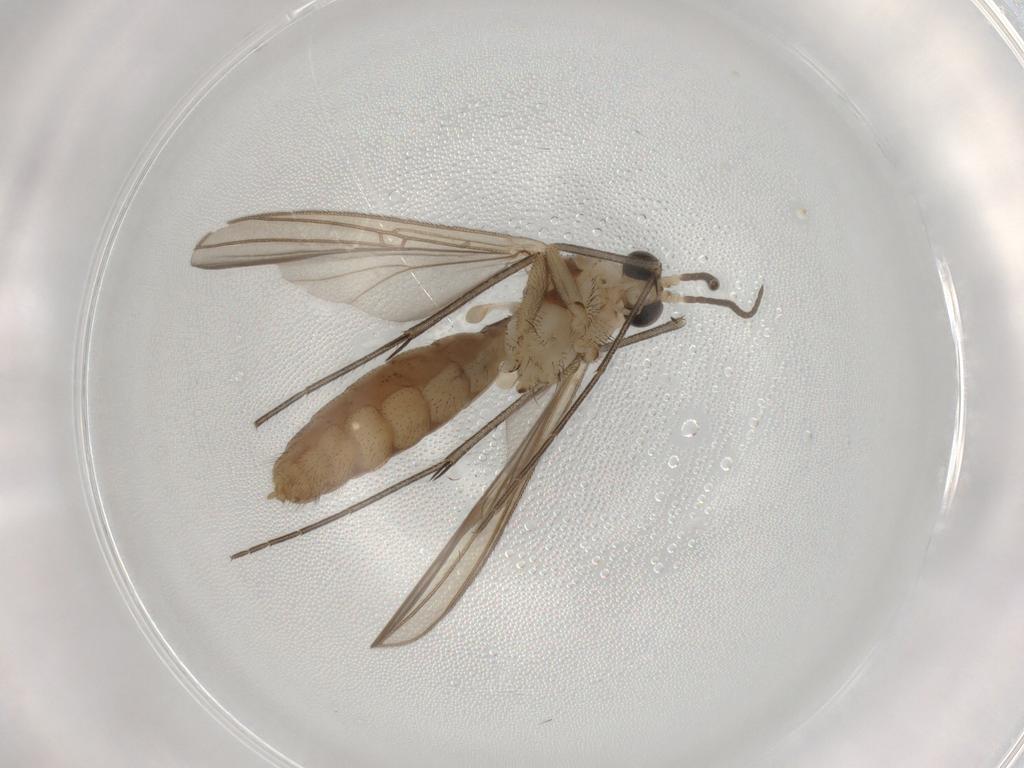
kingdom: Animalia
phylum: Arthropoda
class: Insecta
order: Diptera
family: Mycetophilidae
